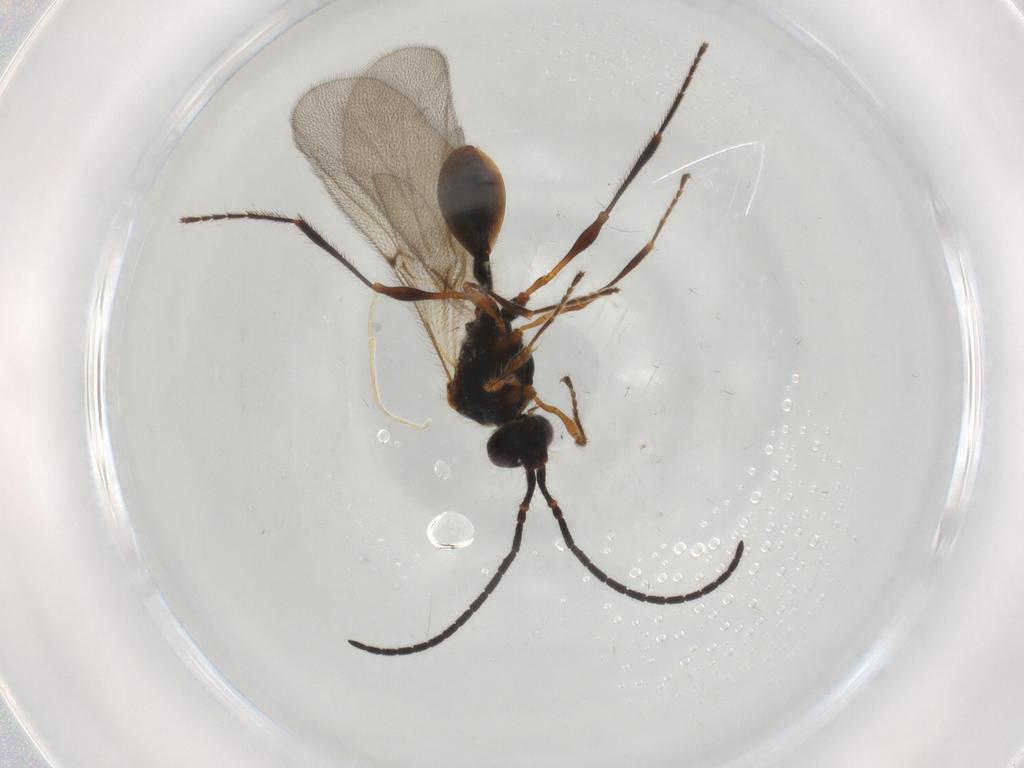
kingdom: Animalia
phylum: Arthropoda
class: Insecta
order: Hymenoptera
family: Diapriidae
